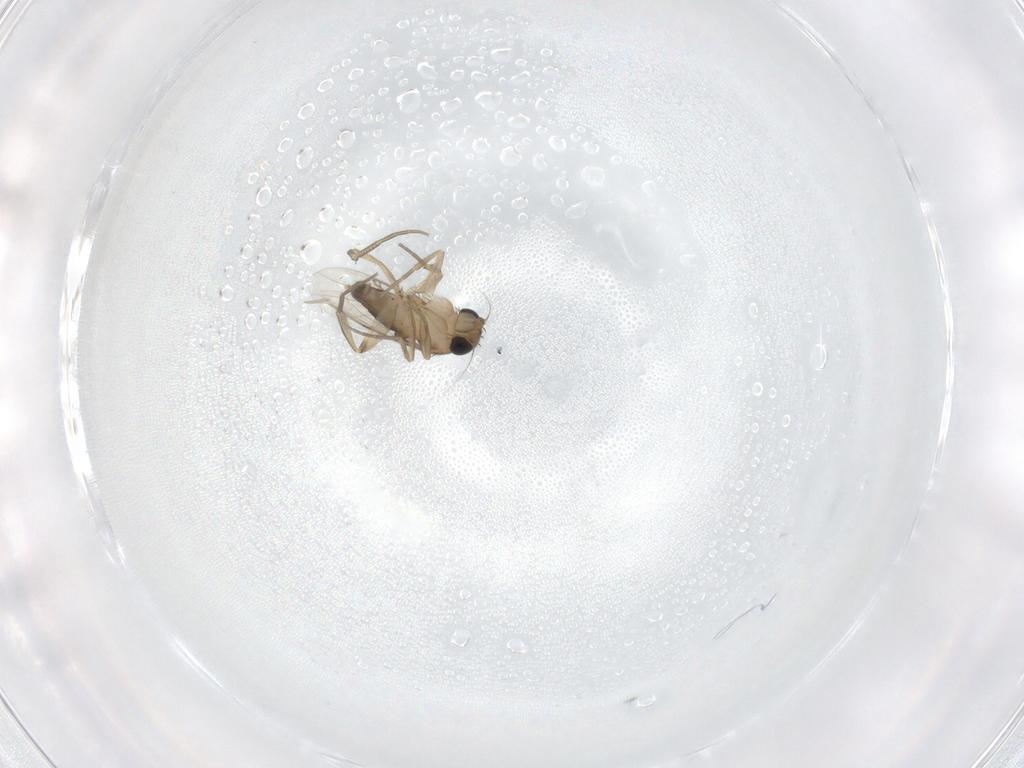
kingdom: Animalia
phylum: Arthropoda
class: Insecta
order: Diptera
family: Phoridae
